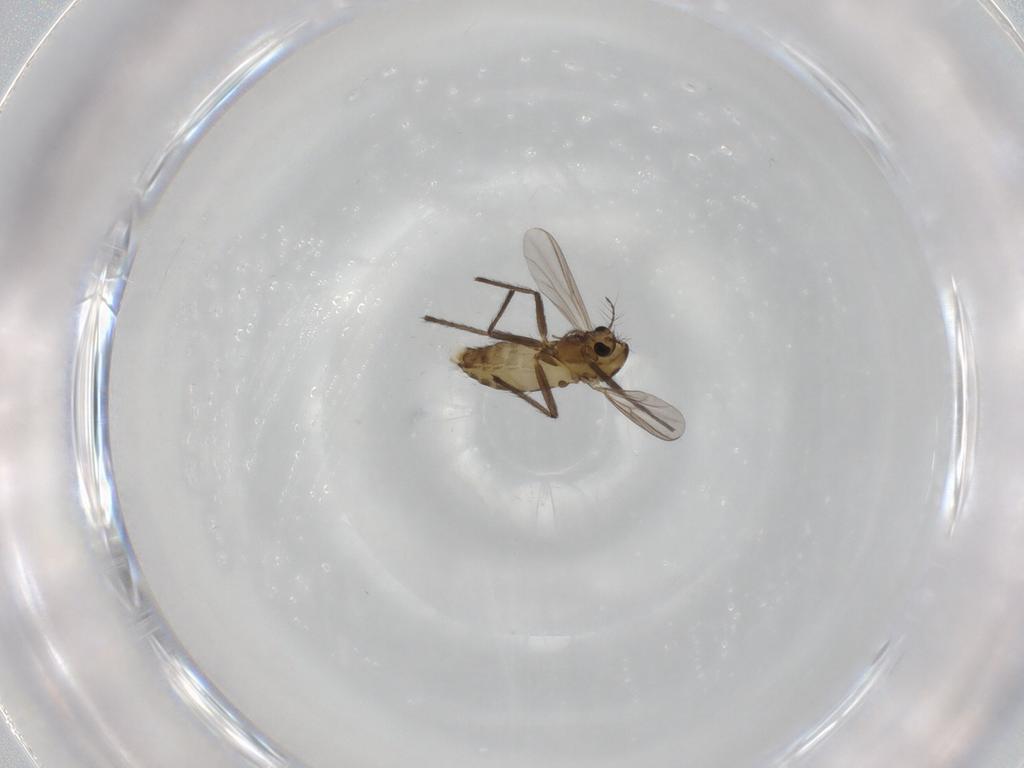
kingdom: Animalia
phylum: Arthropoda
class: Insecta
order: Diptera
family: Chironomidae
